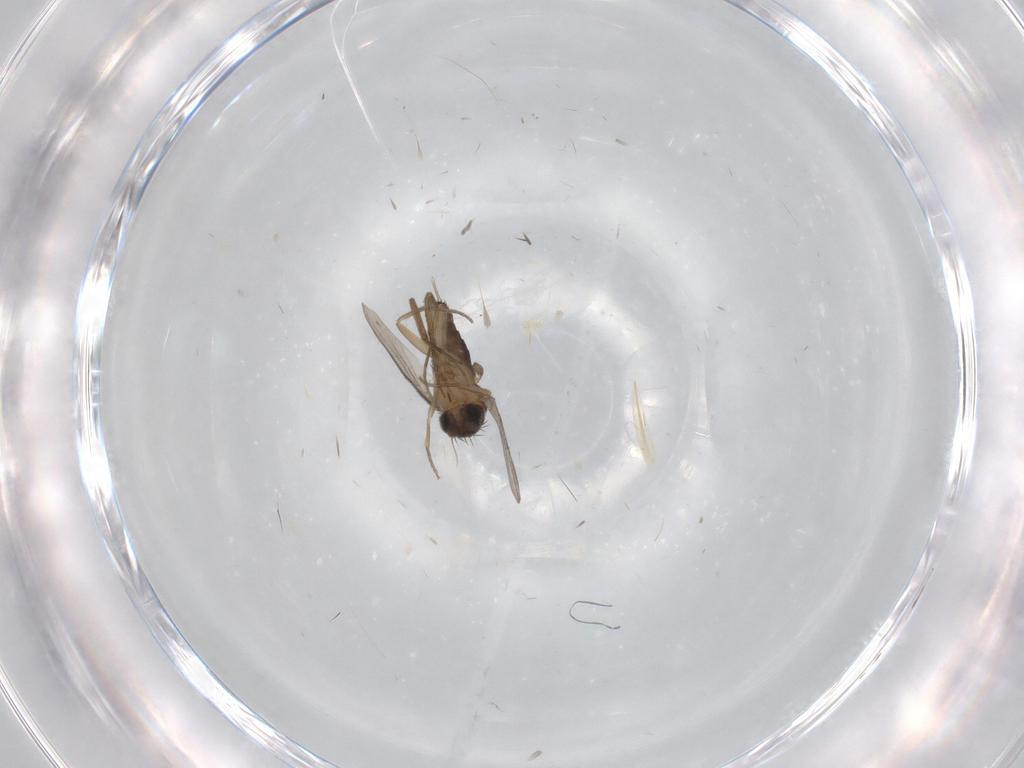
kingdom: Animalia
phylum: Arthropoda
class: Insecta
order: Diptera
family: Phoridae
